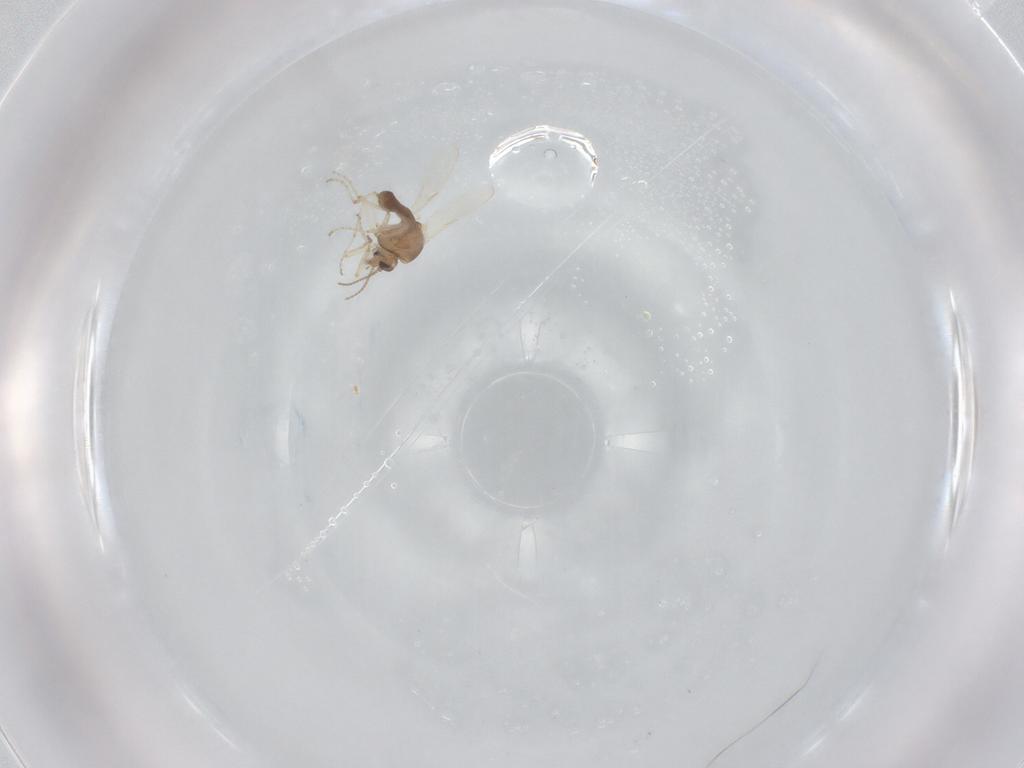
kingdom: Animalia
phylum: Arthropoda
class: Insecta
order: Diptera
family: Ceratopogonidae
